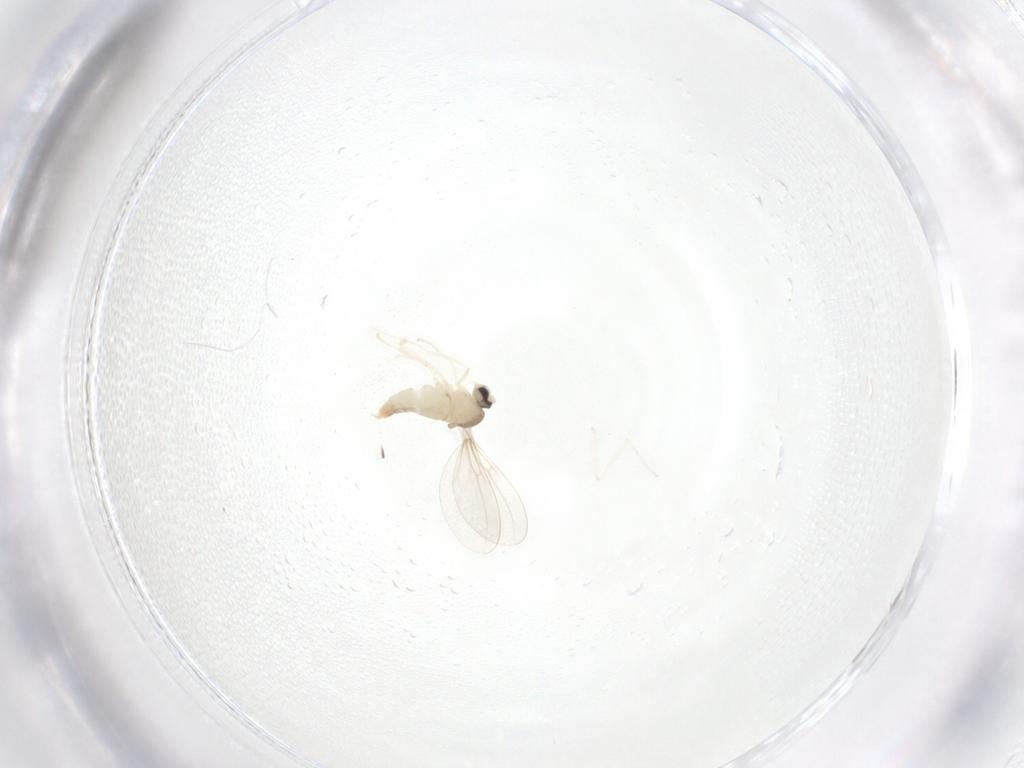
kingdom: Animalia
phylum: Arthropoda
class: Insecta
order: Diptera
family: Cecidomyiidae
